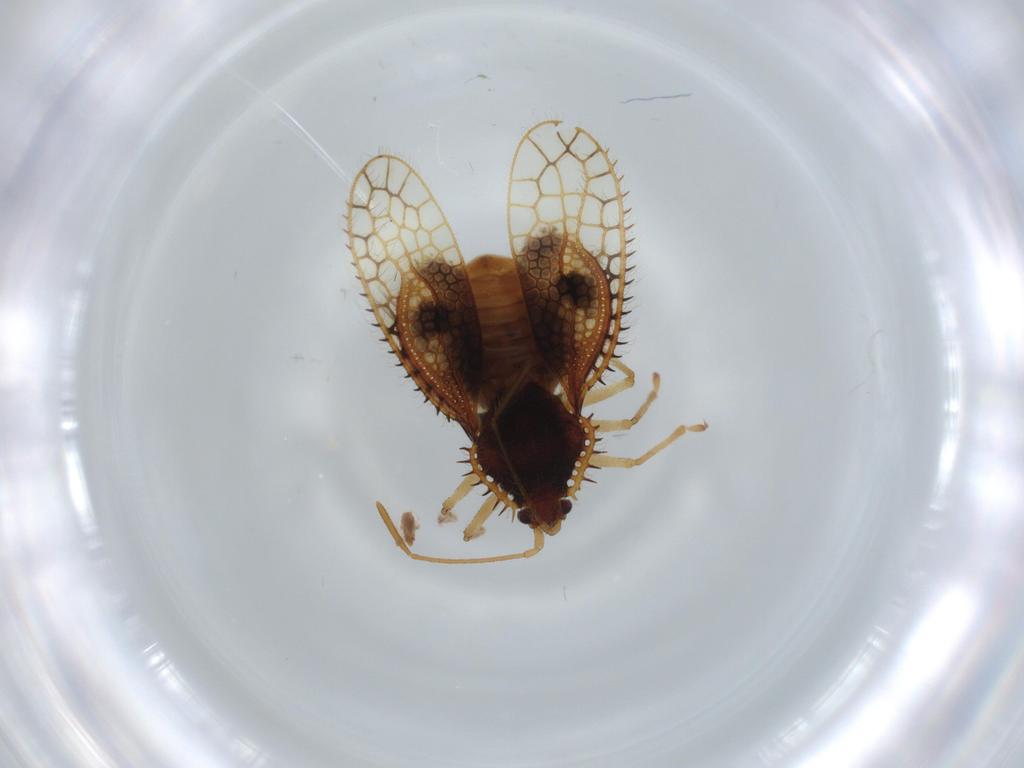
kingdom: Animalia
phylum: Arthropoda
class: Insecta
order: Hemiptera
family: Tingidae
